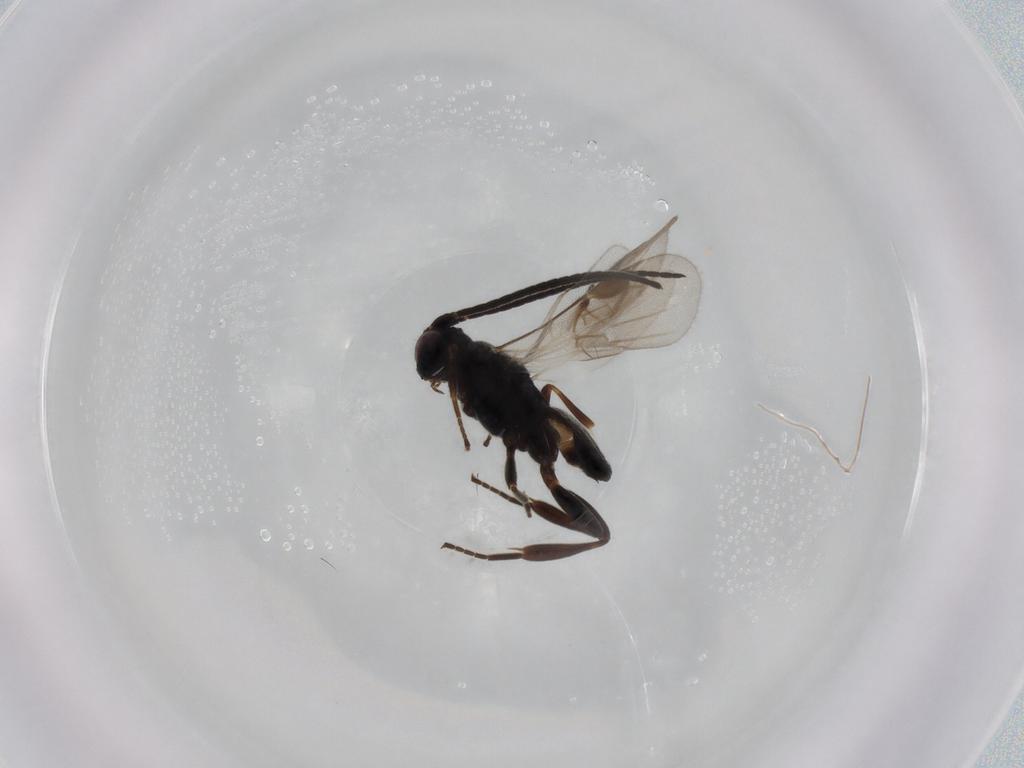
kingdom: Animalia
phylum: Arthropoda
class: Insecta
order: Hymenoptera
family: Braconidae
